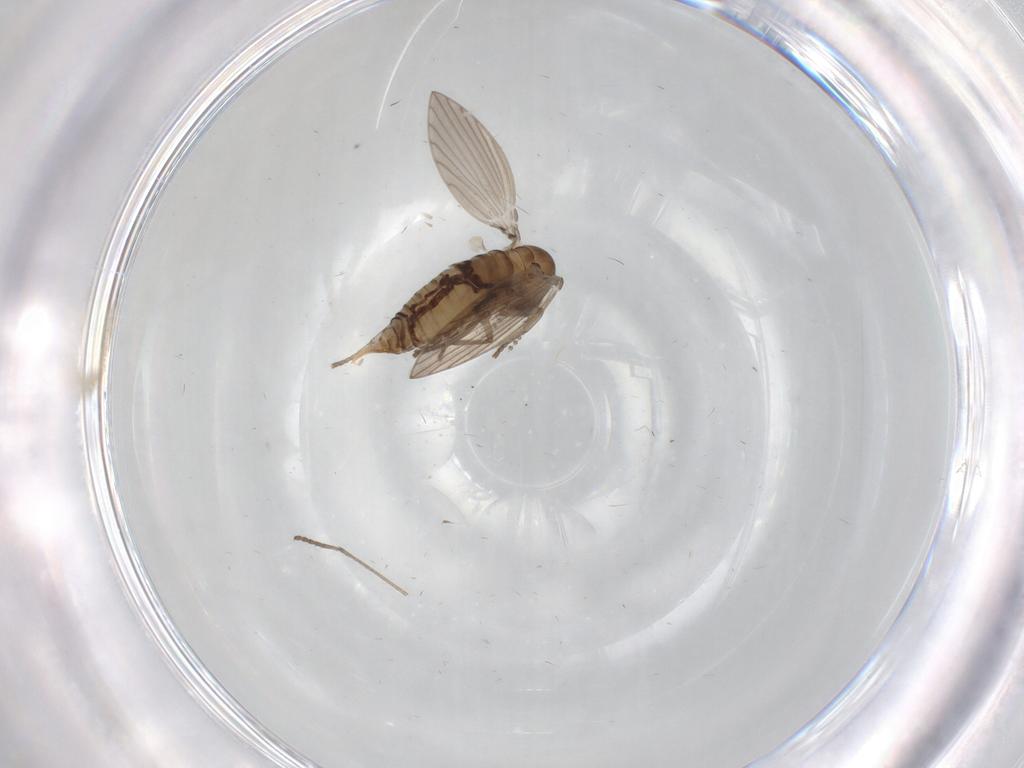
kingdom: Animalia
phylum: Arthropoda
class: Insecta
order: Diptera
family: Psychodidae
